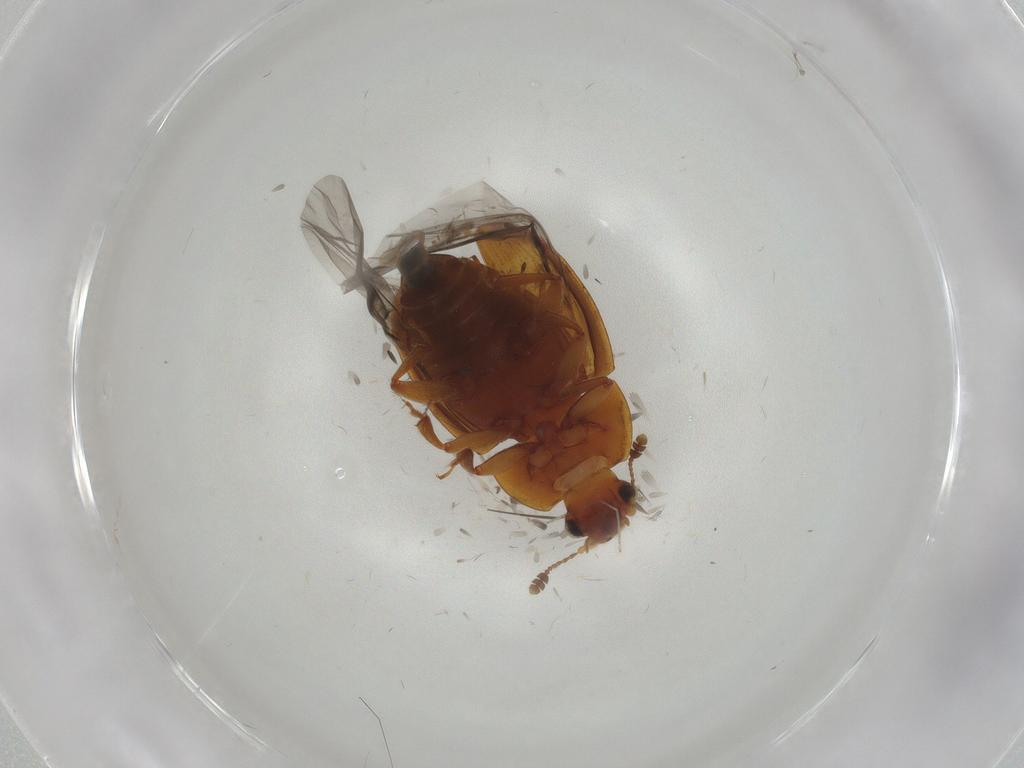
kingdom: Animalia
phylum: Arthropoda
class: Insecta
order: Coleoptera
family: Nitidulidae
